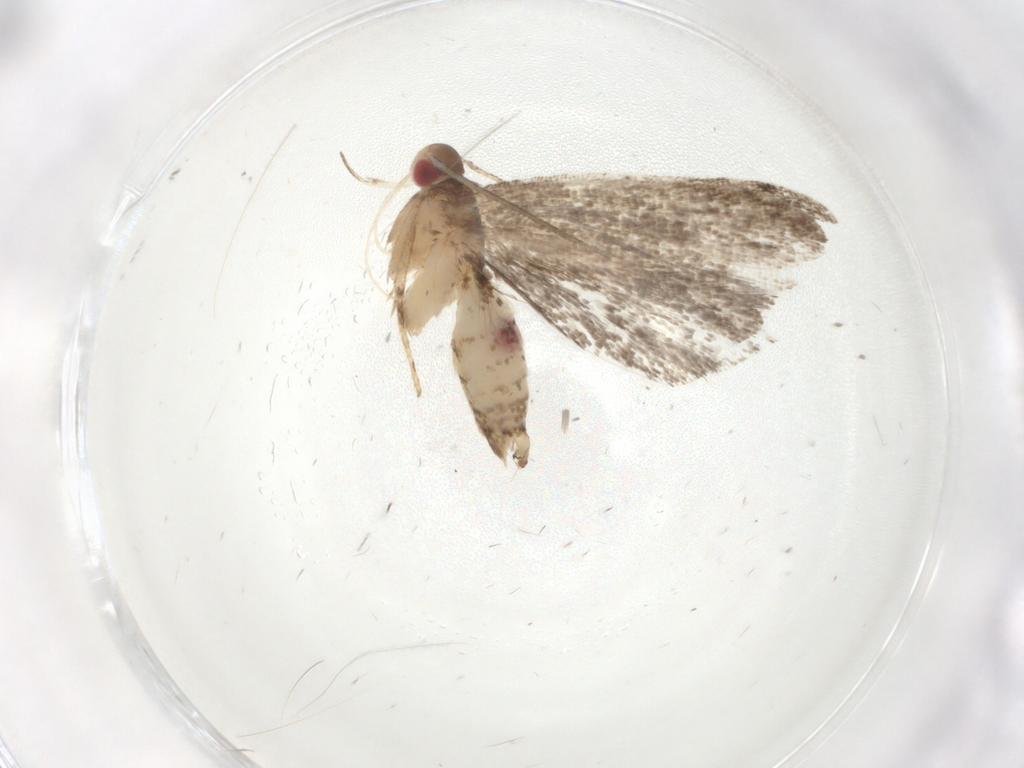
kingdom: Animalia
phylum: Arthropoda
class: Insecta
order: Lepidoptera
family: Gelechiidae
